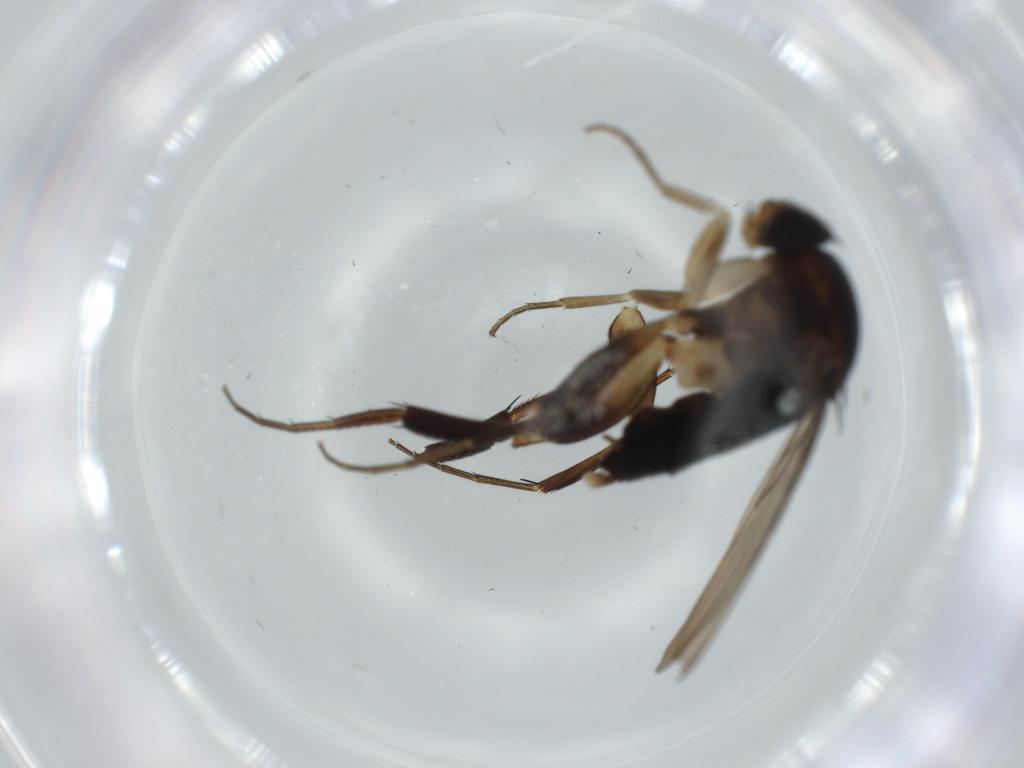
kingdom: Animalia
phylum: Arthropoda
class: Insecta
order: Diptera
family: Phoridae
